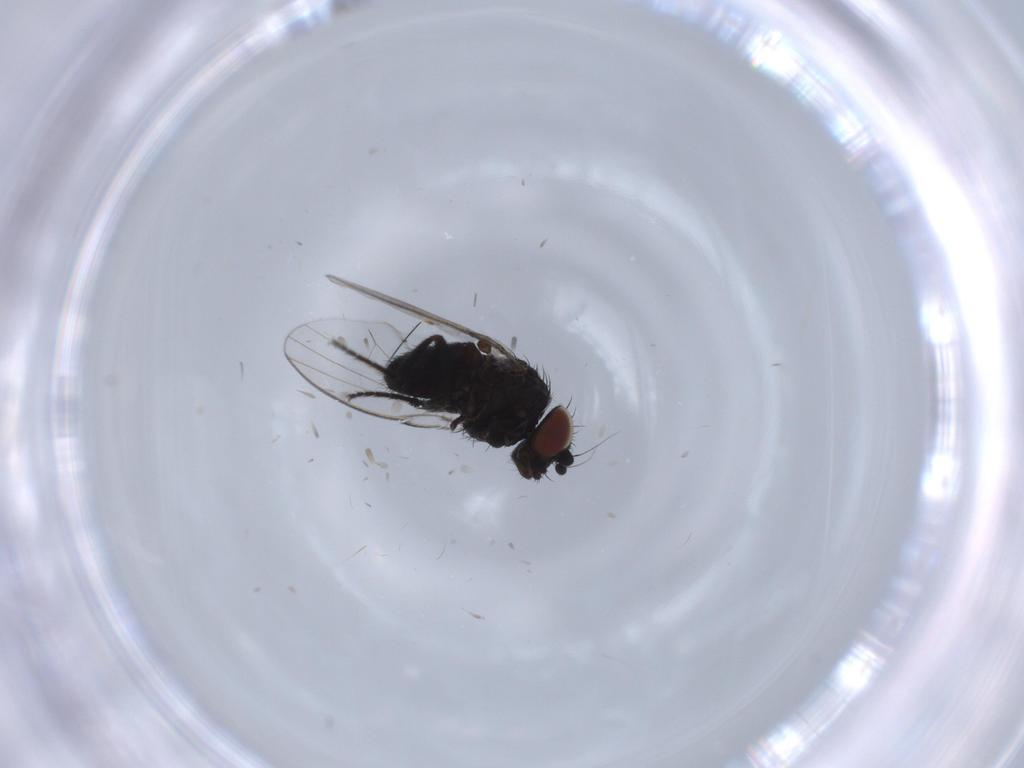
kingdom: Animalia
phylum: Arthropoda
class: Insecta
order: Diptera
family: Milichiidae
